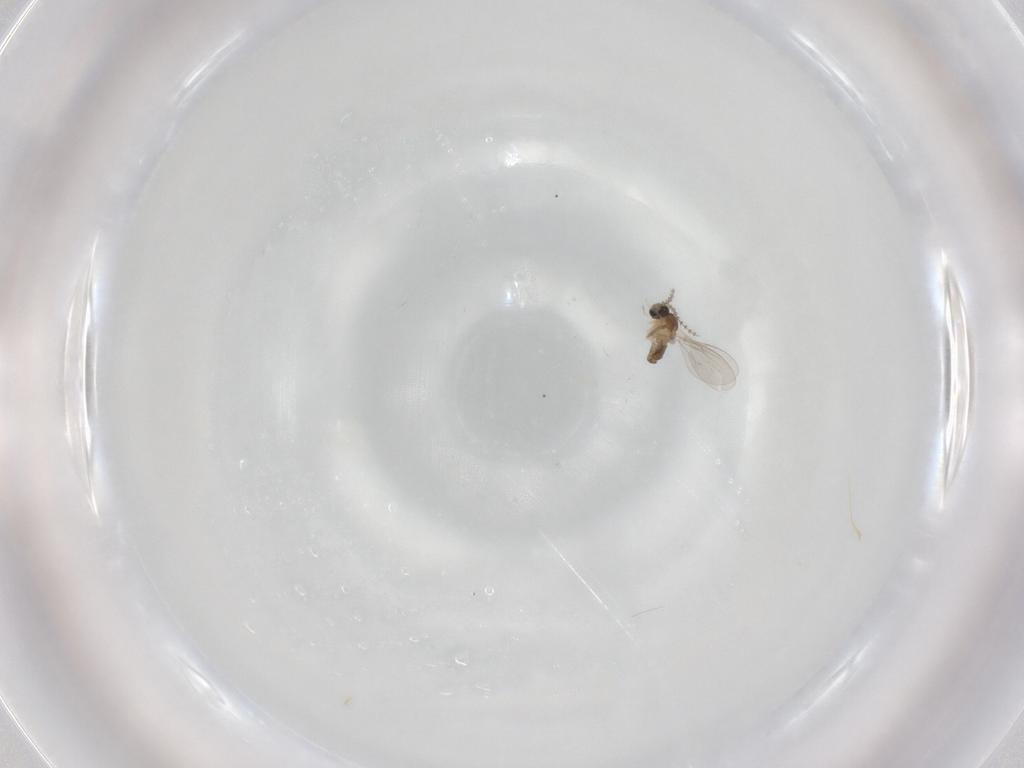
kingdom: Animalia
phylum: Arthropoda
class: Insecta
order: Diptera
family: Cecidomyiidae
